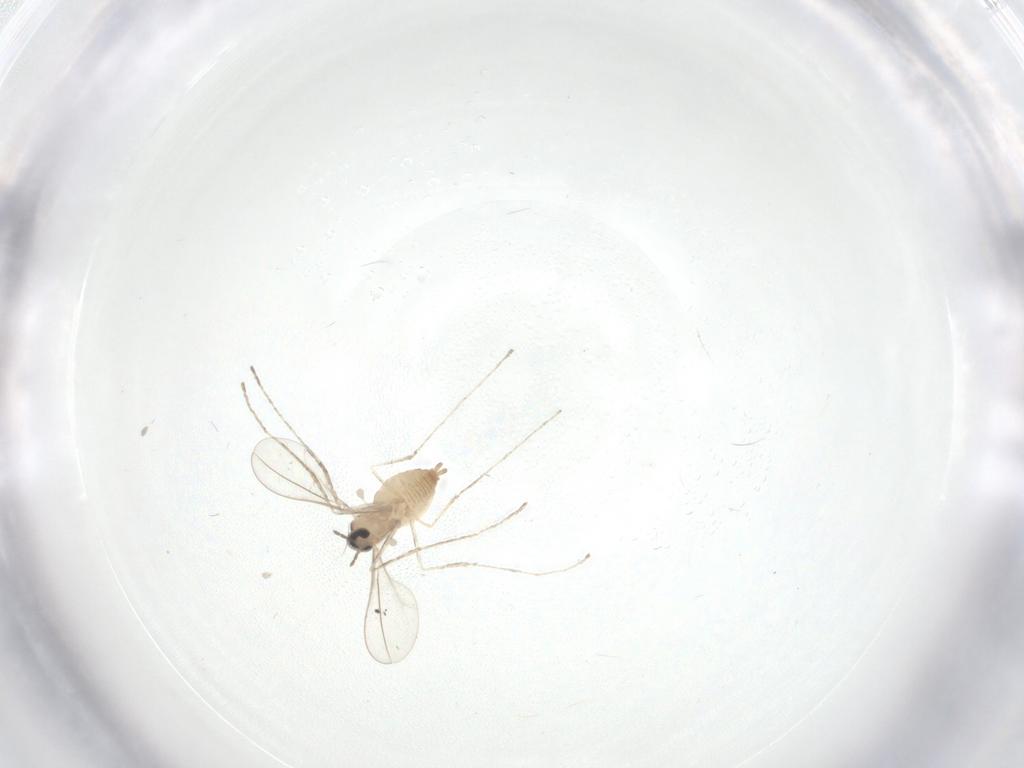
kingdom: Animalia
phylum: Arthropoda
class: Insecta
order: Diptera
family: Cecidomyiidae
